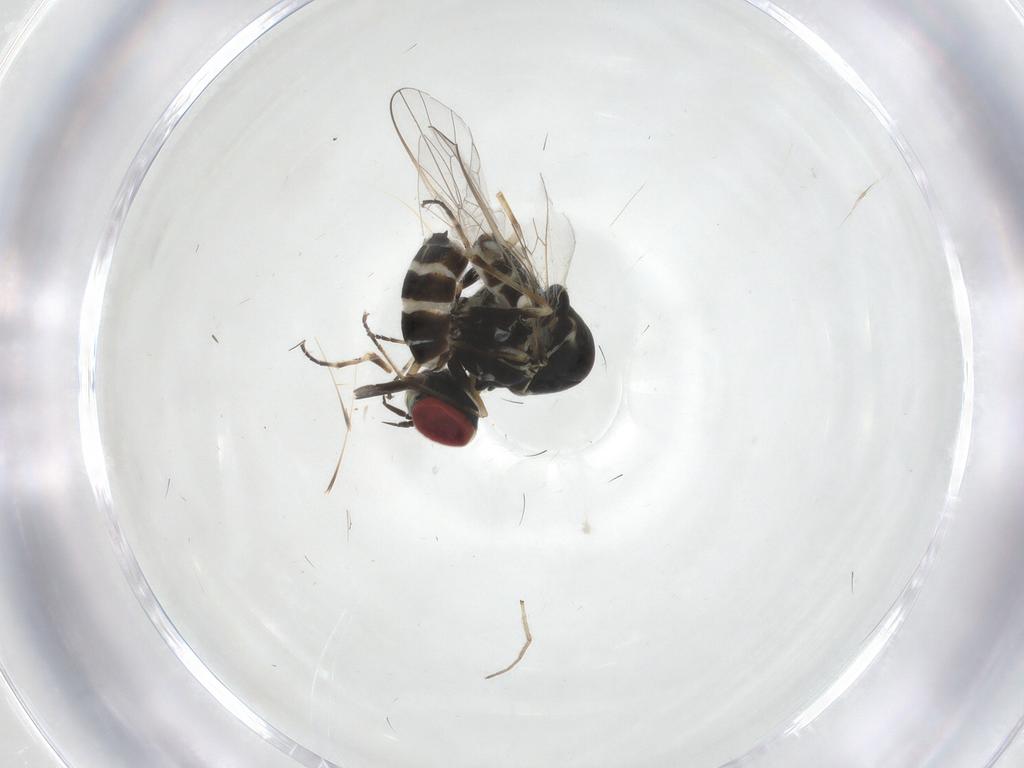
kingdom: Animalia
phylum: Arthropoda
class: Insecta
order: Diptera
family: Bombyliidae
